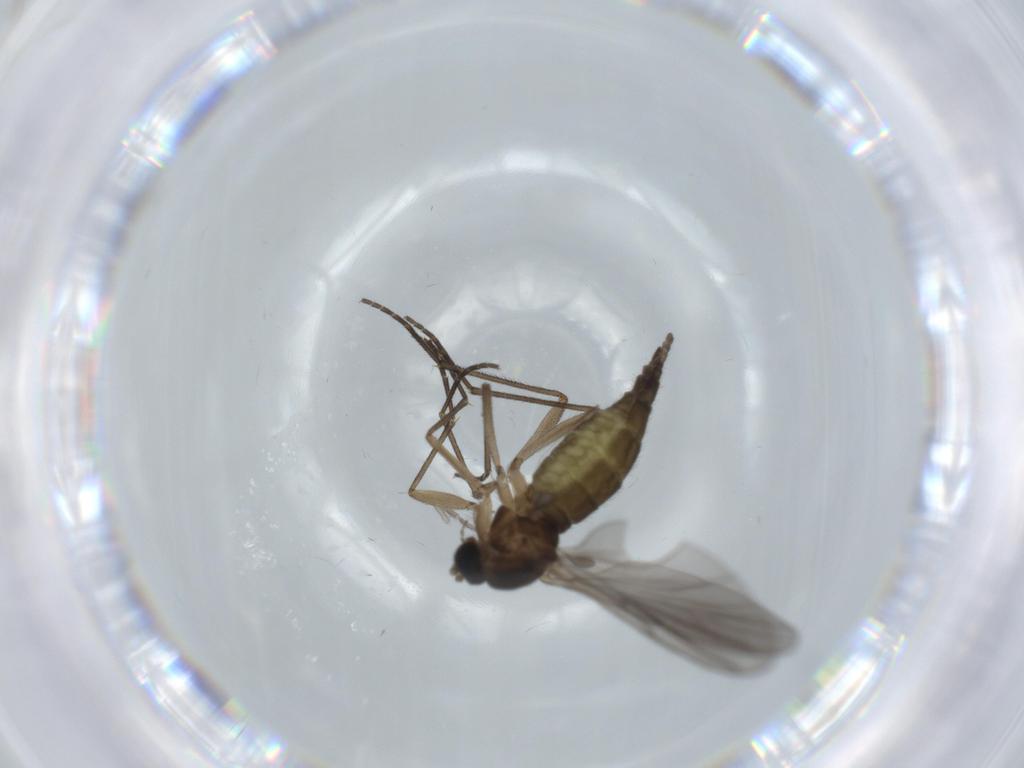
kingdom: Animalia
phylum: Arthropoda
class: Insecta
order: Diptera
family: Sciaridae
